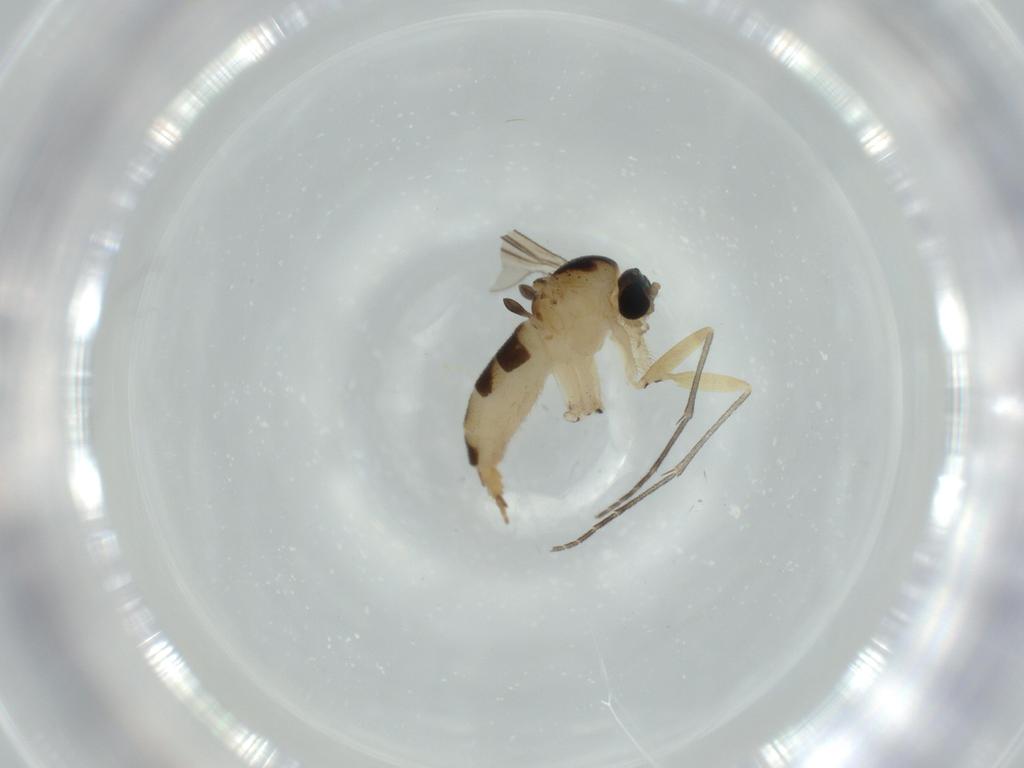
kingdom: Animalia
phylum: Arthropoda
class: Insecta
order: Diptera
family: Sciaridae
